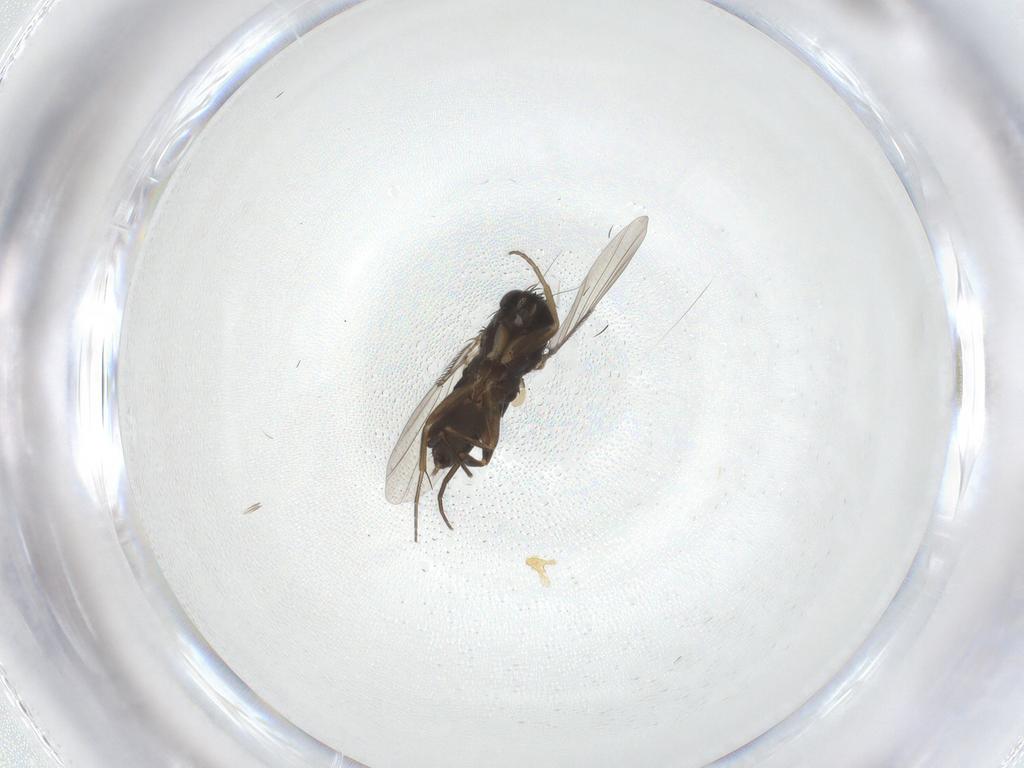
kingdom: Animalia
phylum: Arthropoda
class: Insecta
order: Diptera
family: Phoridae
